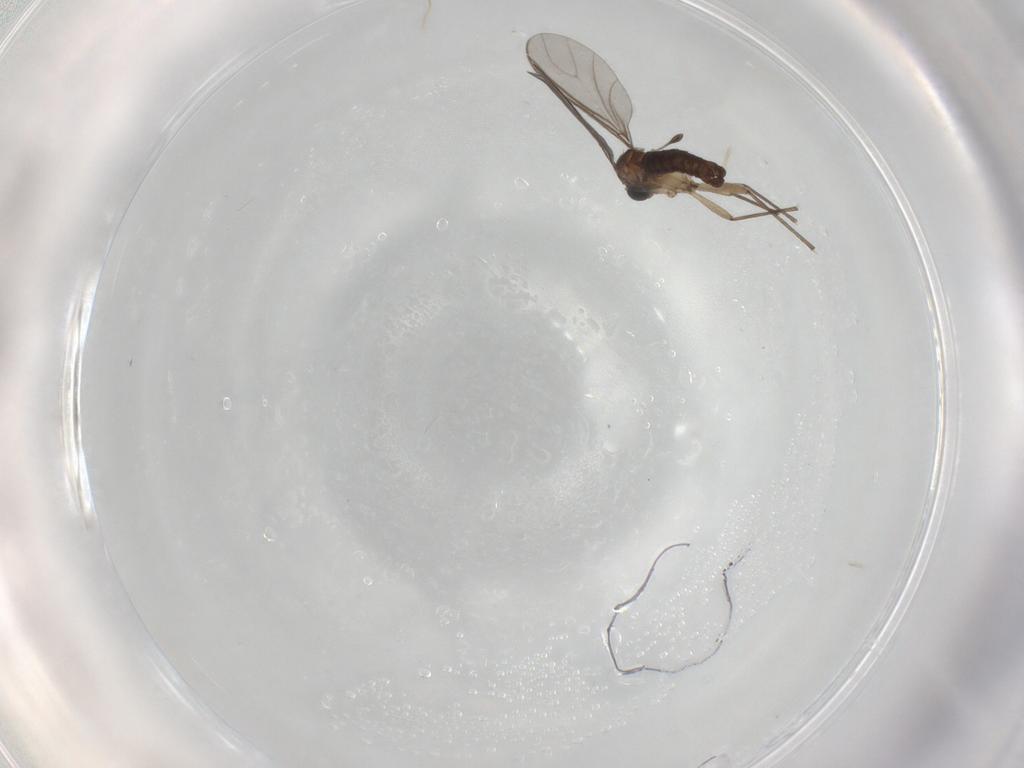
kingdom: Animalia
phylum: Arthropoda
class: Insecta
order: Diptera
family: Sciaridae
